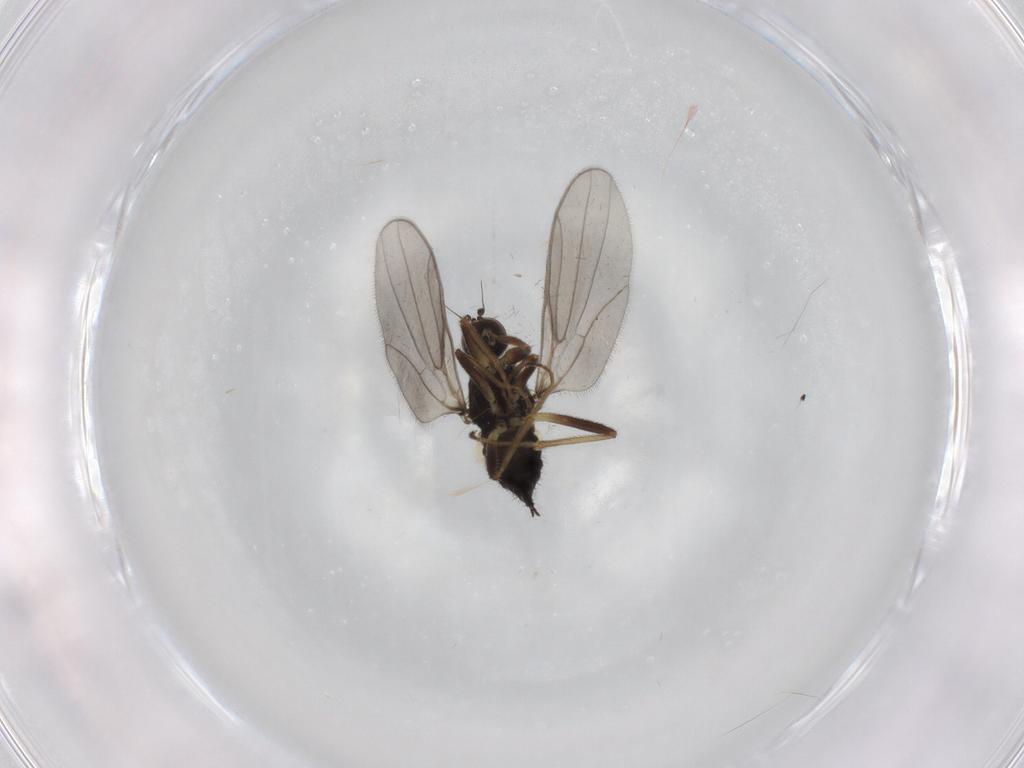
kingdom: Animalia
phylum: Arthropoda
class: Insecta
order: Diptera
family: Hybotidae
